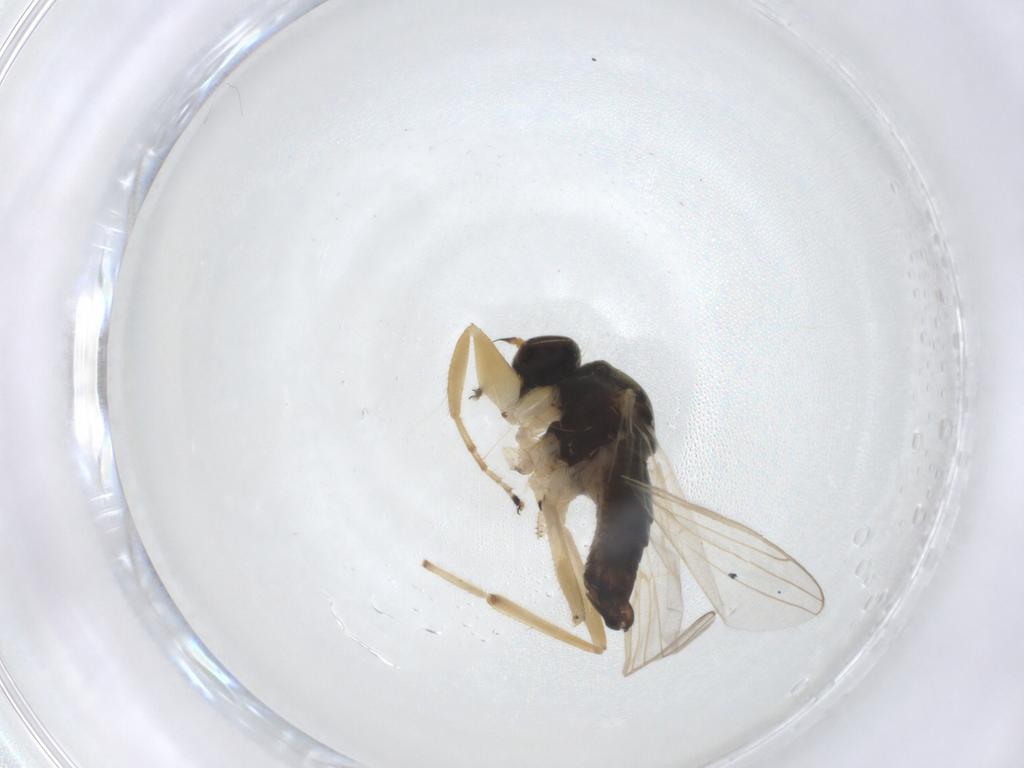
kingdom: Animalia
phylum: Arthropoda
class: Insecta
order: Diptera
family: Hybotidae
